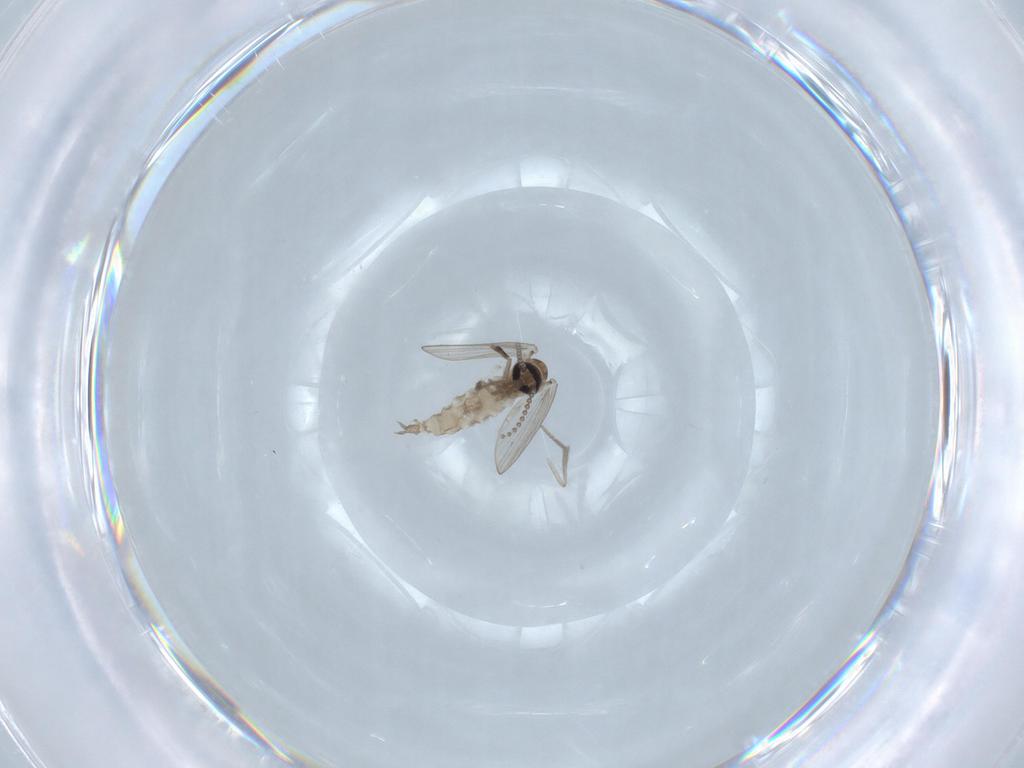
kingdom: Animalia
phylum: Arthropoda
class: Insecta
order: Diptera
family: Psychodidae
